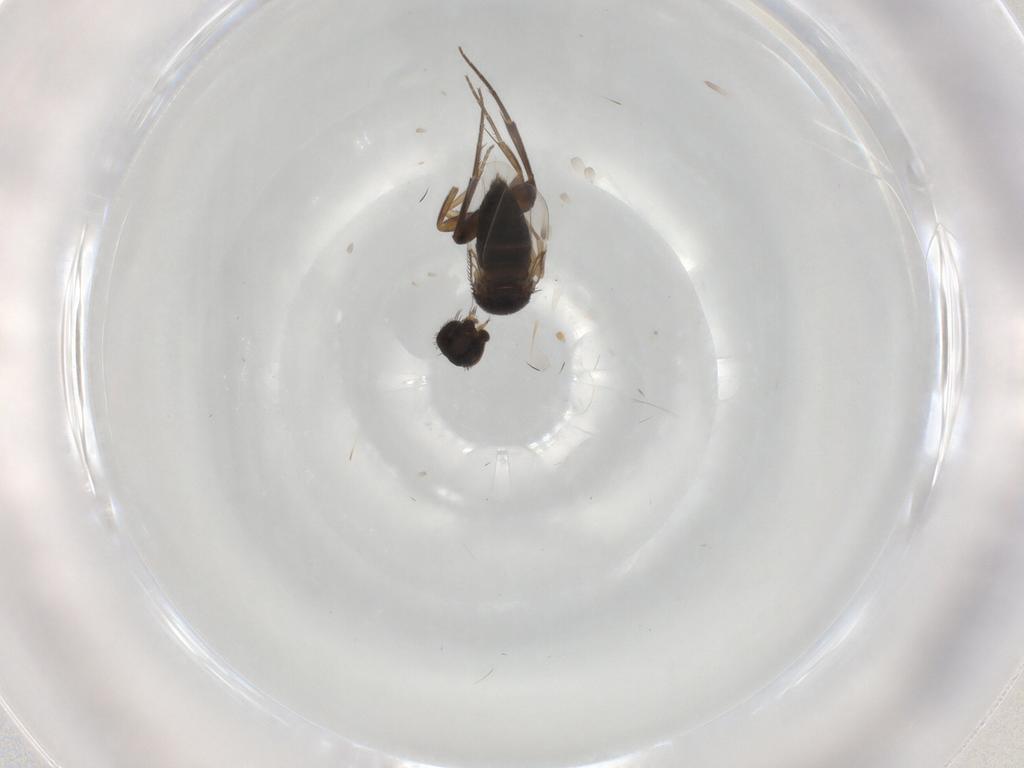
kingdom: Animalia
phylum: Arthropoda
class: Insecta
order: Diptera
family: Phoridae
